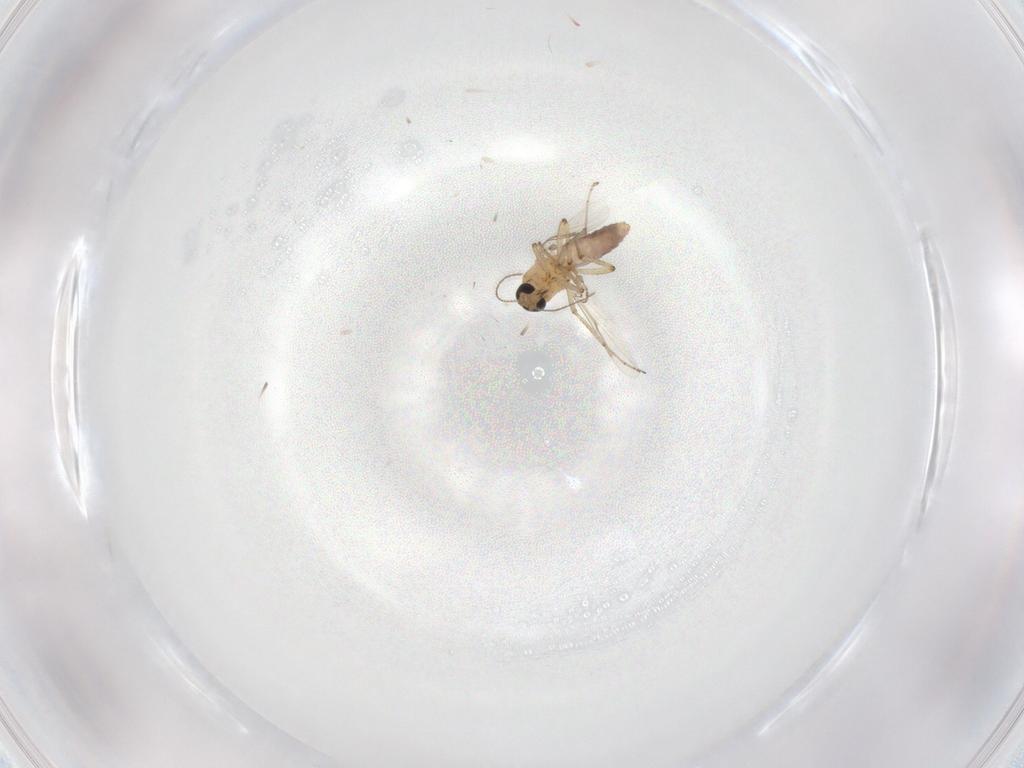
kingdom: Animalia
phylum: Arthropoda
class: Insecta
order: Diptera
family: Ceratopogonidae
